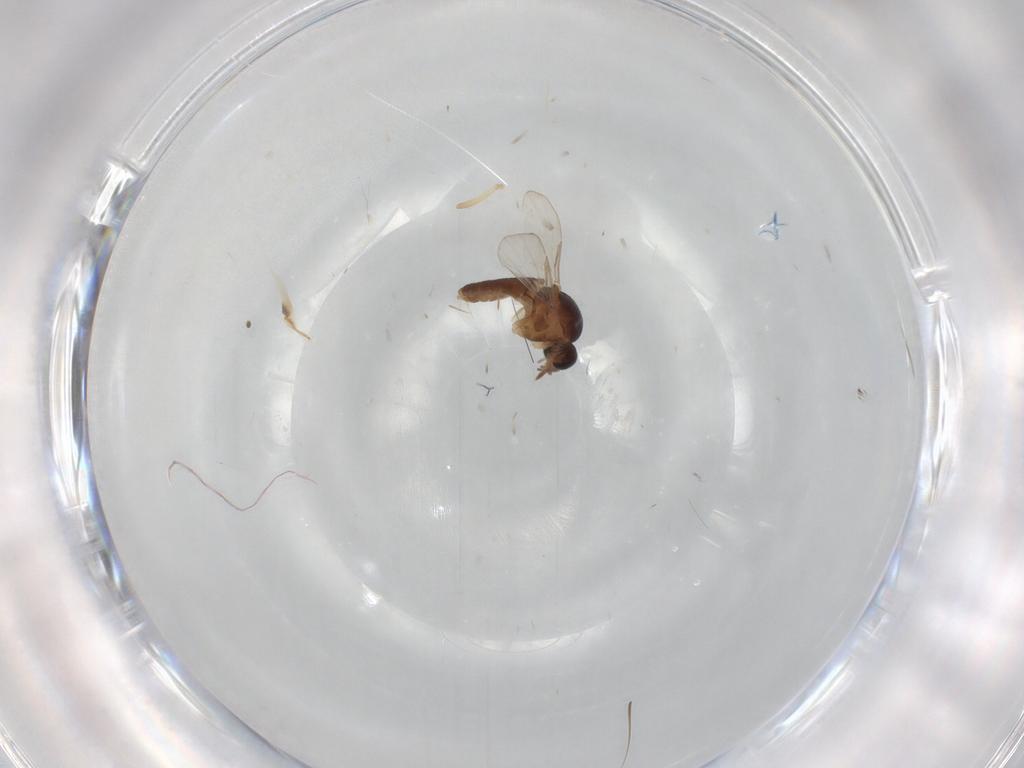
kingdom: Animalia
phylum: Arthropoda
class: Insecta
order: Diptera
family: Ceratopogonidae
